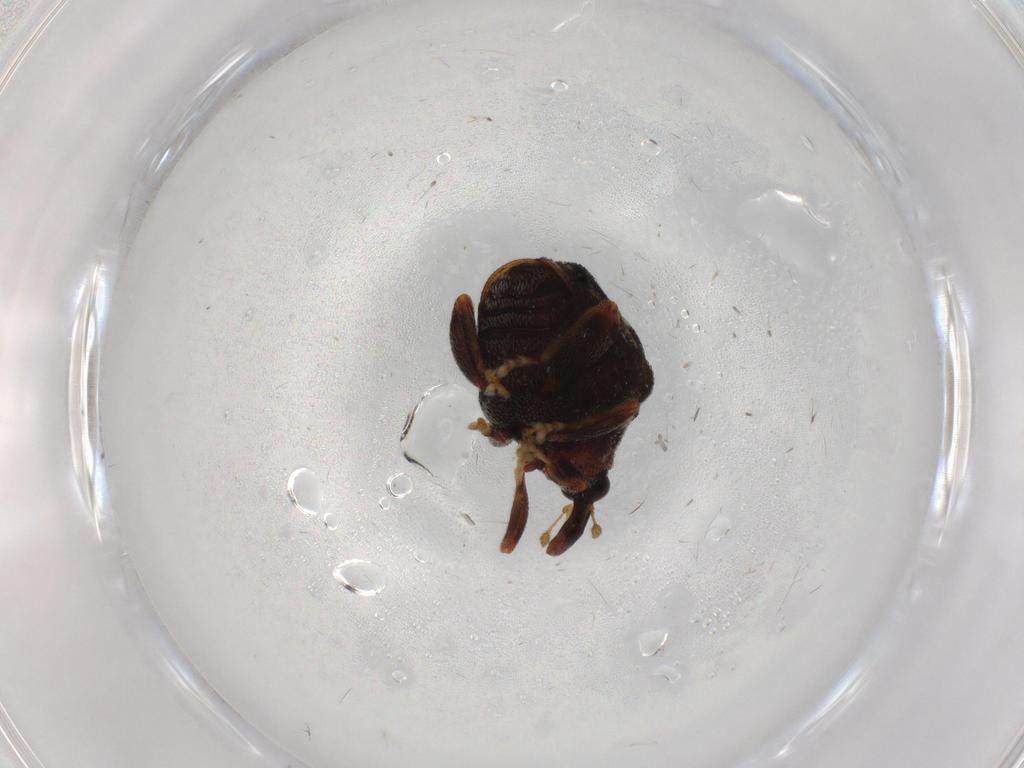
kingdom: Animalia
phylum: Arthropoda
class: Insecta
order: Coleoptera
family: Curculionidae
